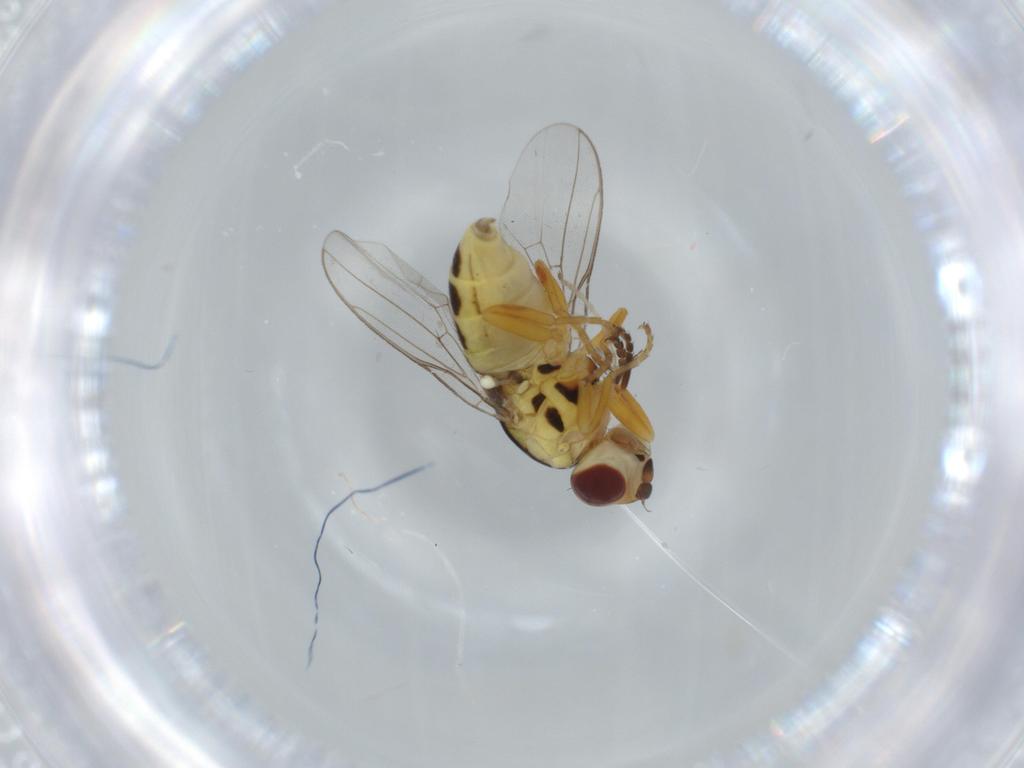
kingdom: Animalia
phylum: Arthropoda
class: Insecta
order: Diptera
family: Chloropidae
